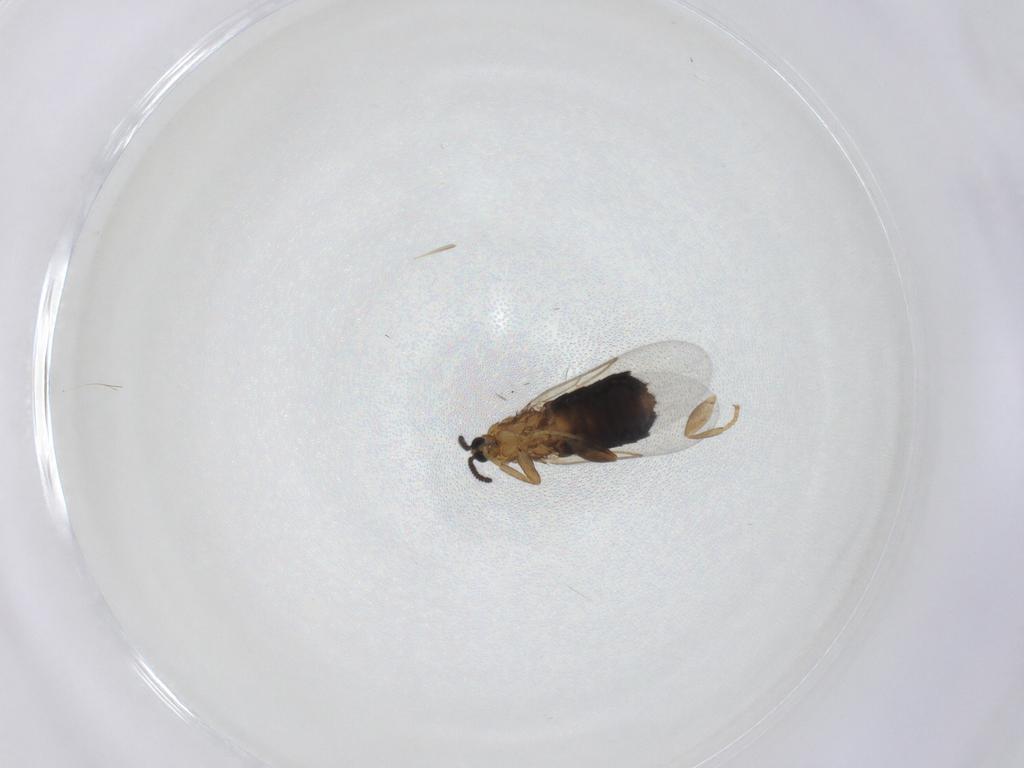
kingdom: Animalia
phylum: Arthropoda
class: Insecta
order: Diptera
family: Scatopsidae
